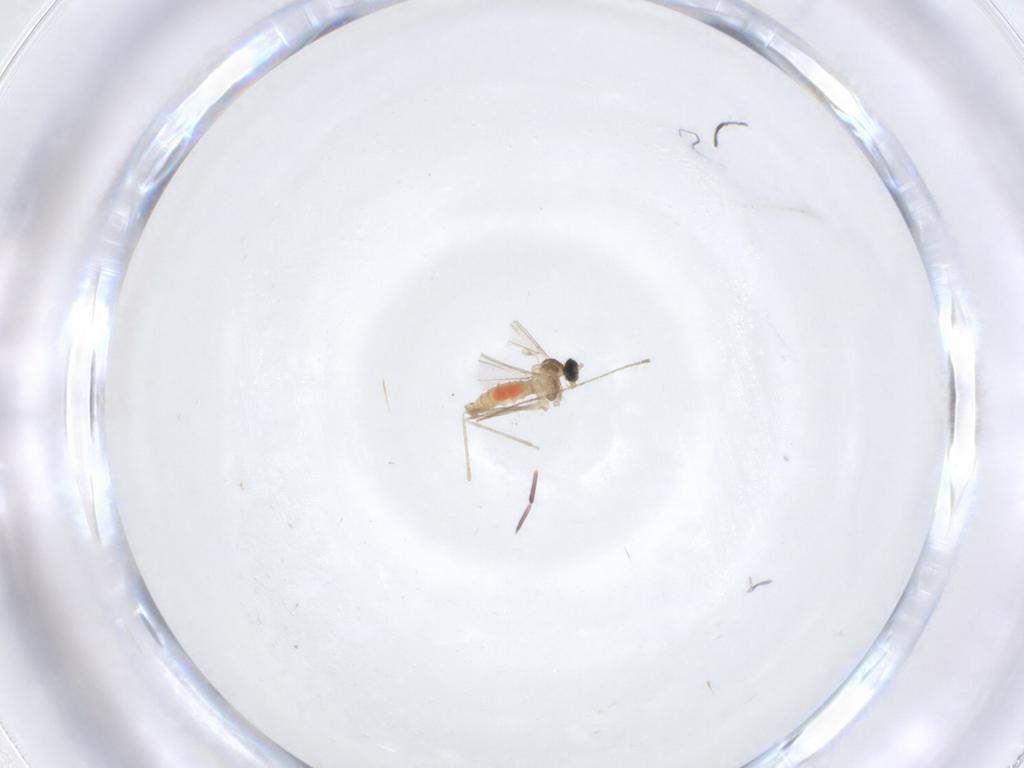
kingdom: Animalia
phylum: Arthropoda
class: Insecta
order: Diptera
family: Cecidomyiidae
